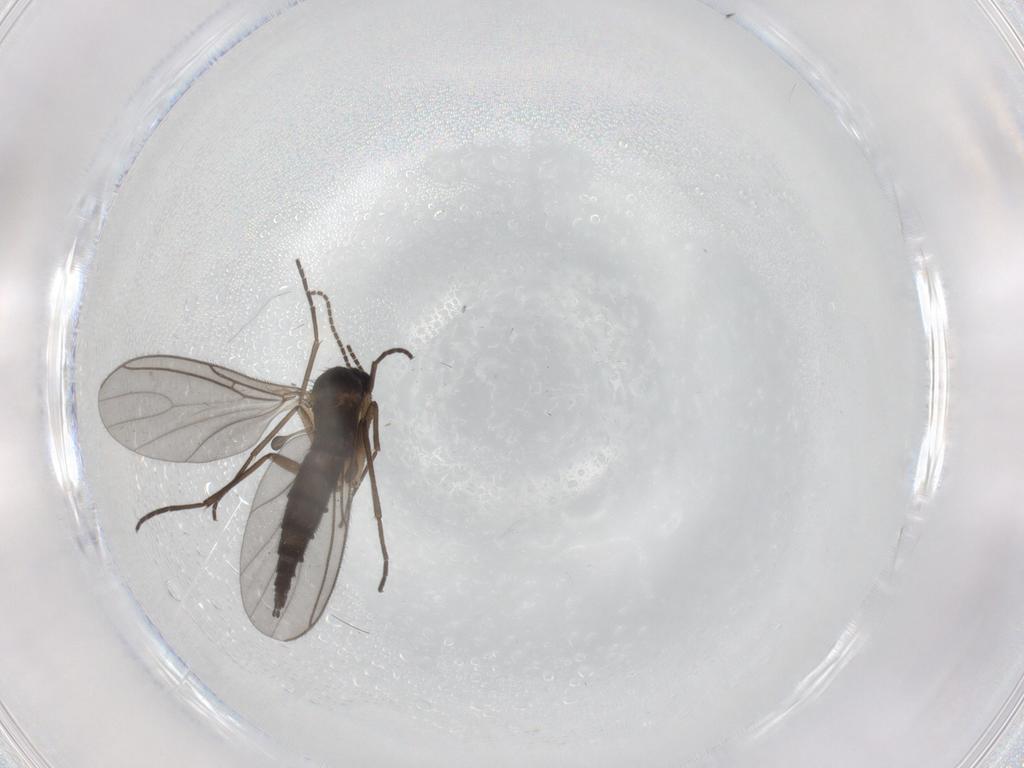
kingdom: Animalia
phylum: Arthropoda
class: Insecta
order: Diptera
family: Sciaridae
